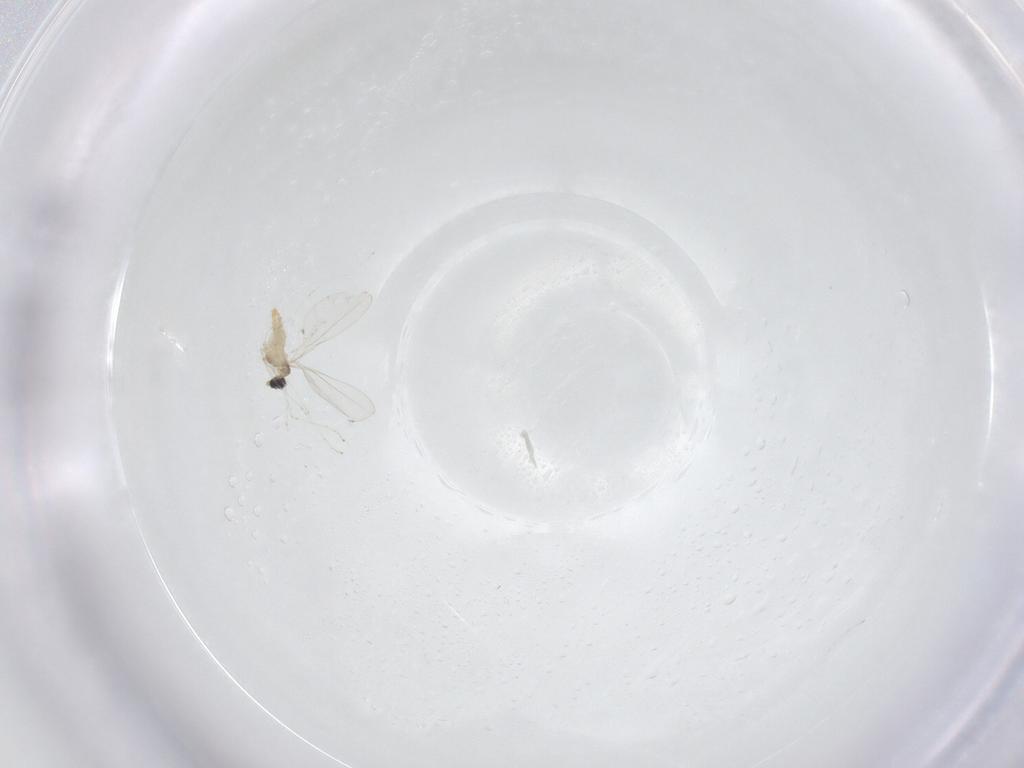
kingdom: Animalia
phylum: Arthropoda
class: Insecta
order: Diptera
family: Cecidomyiidae
